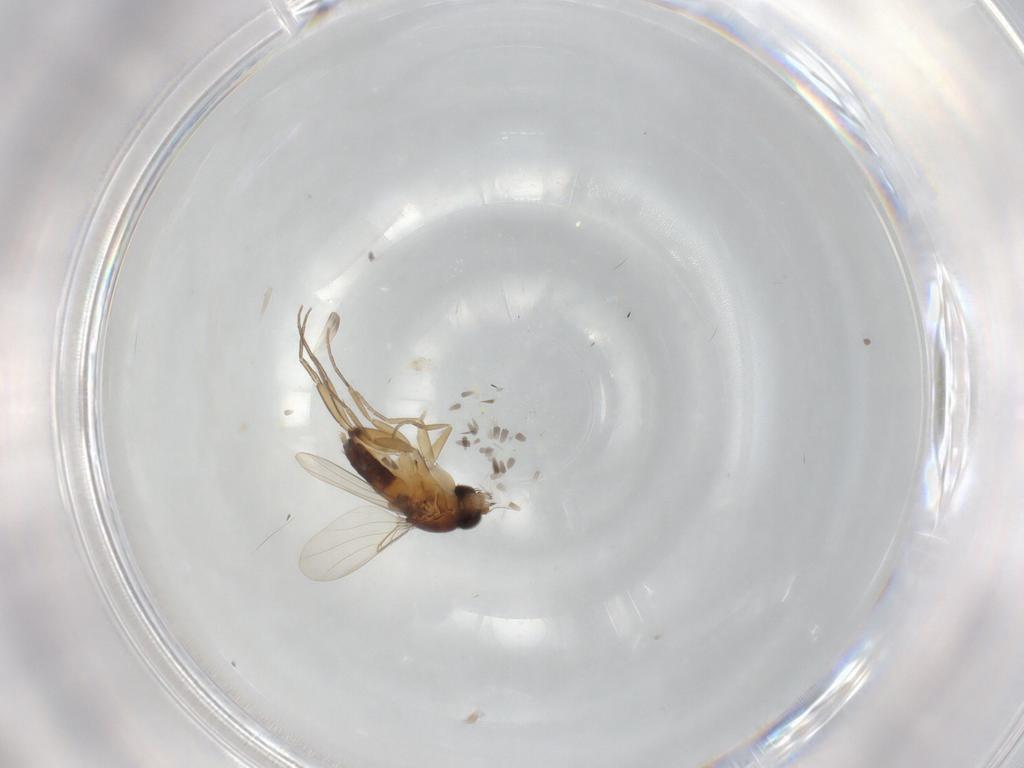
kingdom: Animalia
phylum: Arthropoda
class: Insecta
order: Diptera
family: Phoridae
